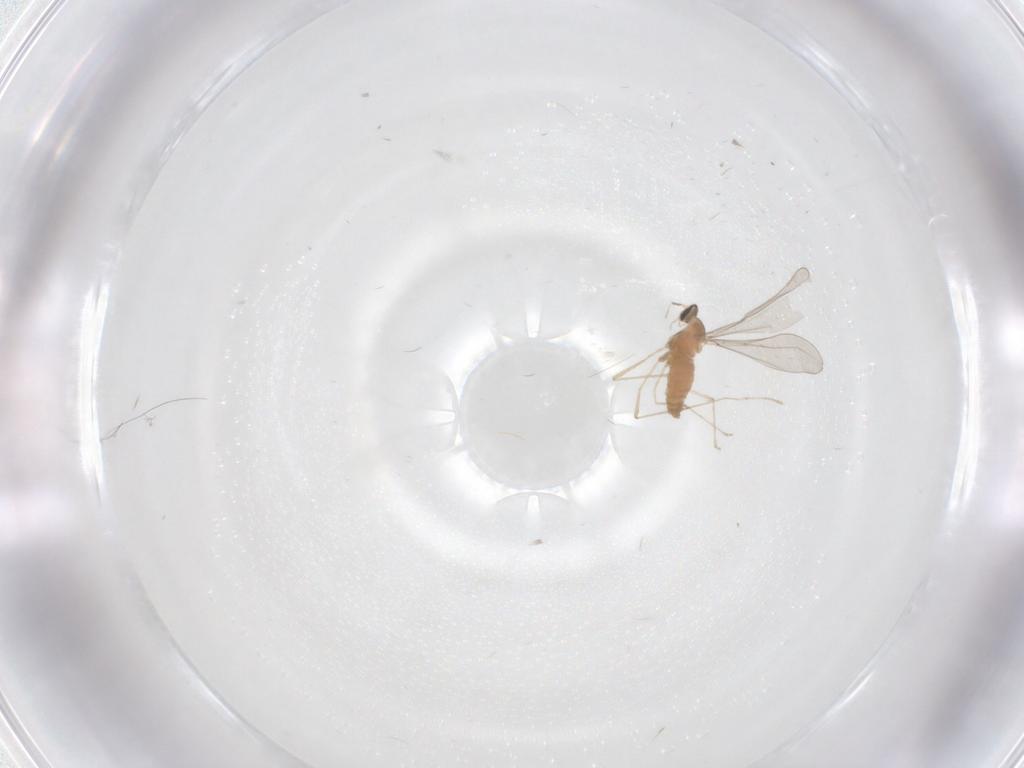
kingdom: Animalia
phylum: Arthropoda
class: Insecta
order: Diptera
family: Cecidomyiidae
